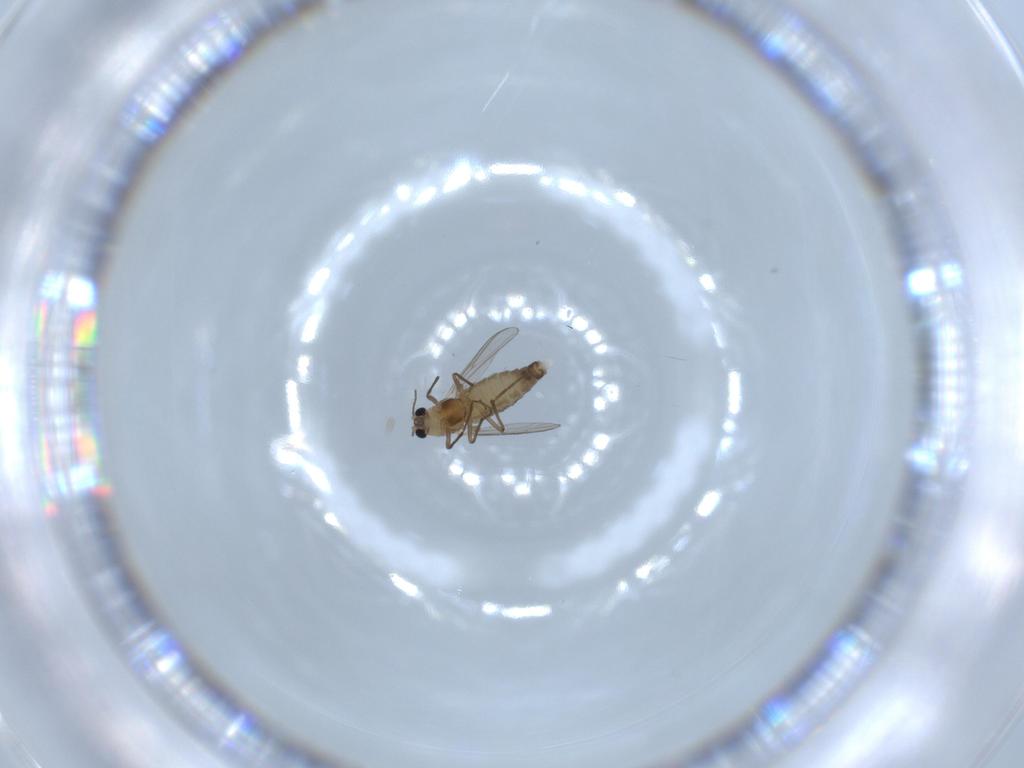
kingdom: Animalia
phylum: Arthropoda
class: Insecta
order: Diptera
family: Chironomidae
